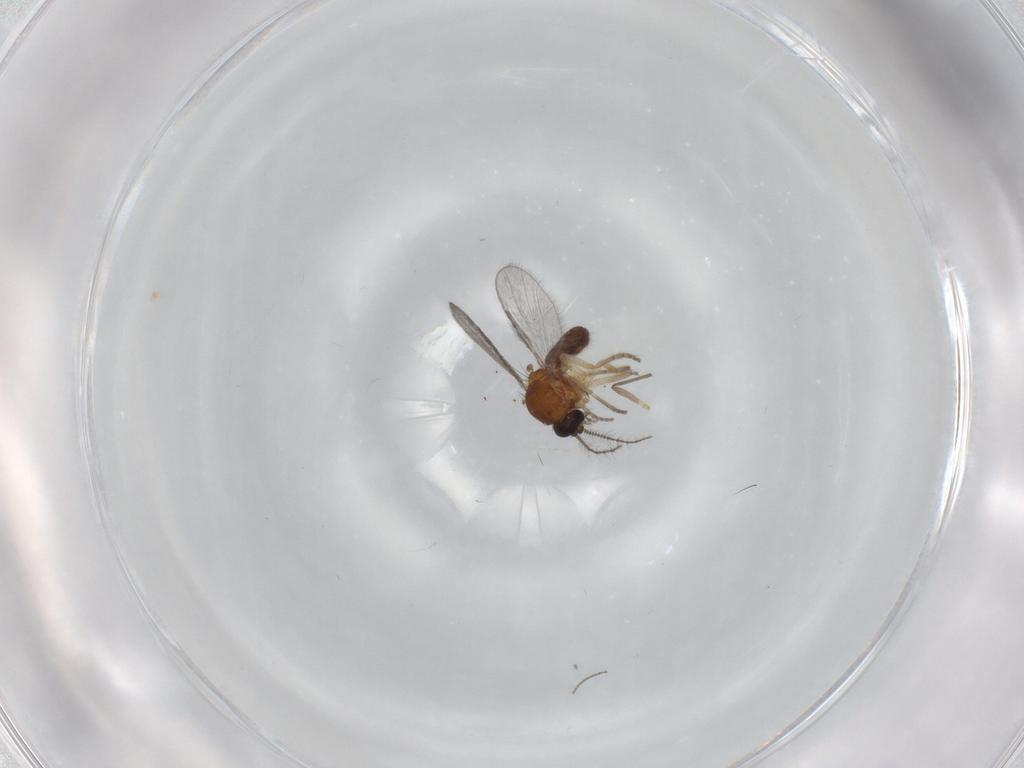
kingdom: Animalia
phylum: Arthropoda
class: Insecta
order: Diptera
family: Ceratopogonidae
